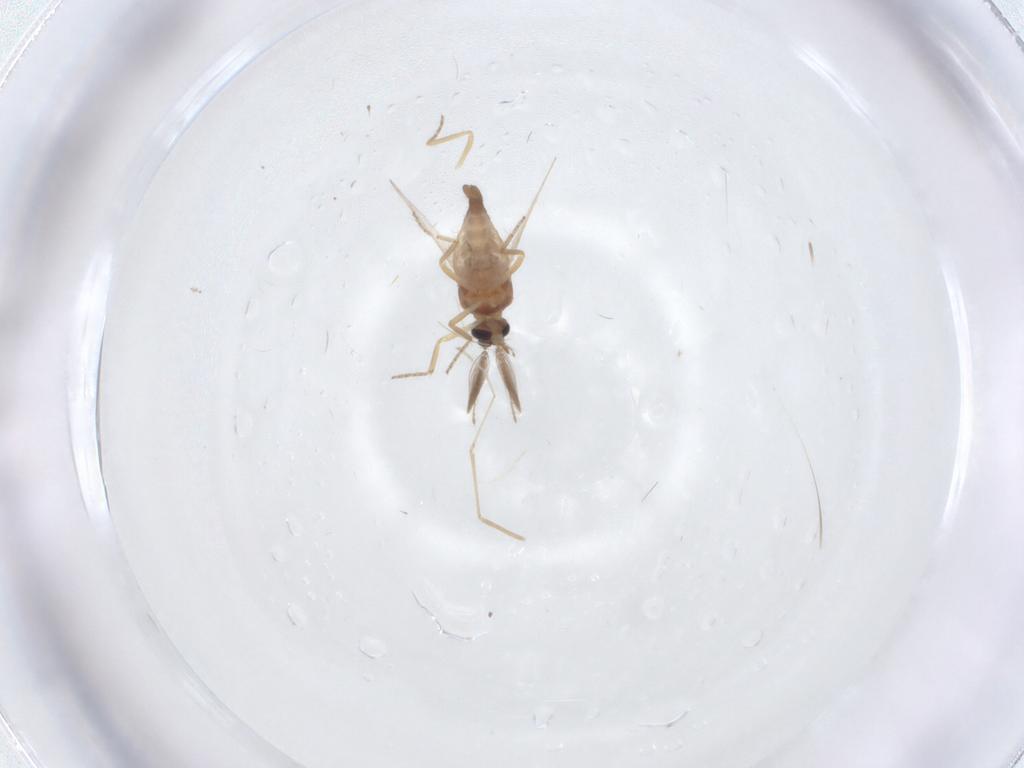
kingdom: Animalia
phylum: Arthropoda
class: Insecta
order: Diptera
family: Ceratopogonidae
